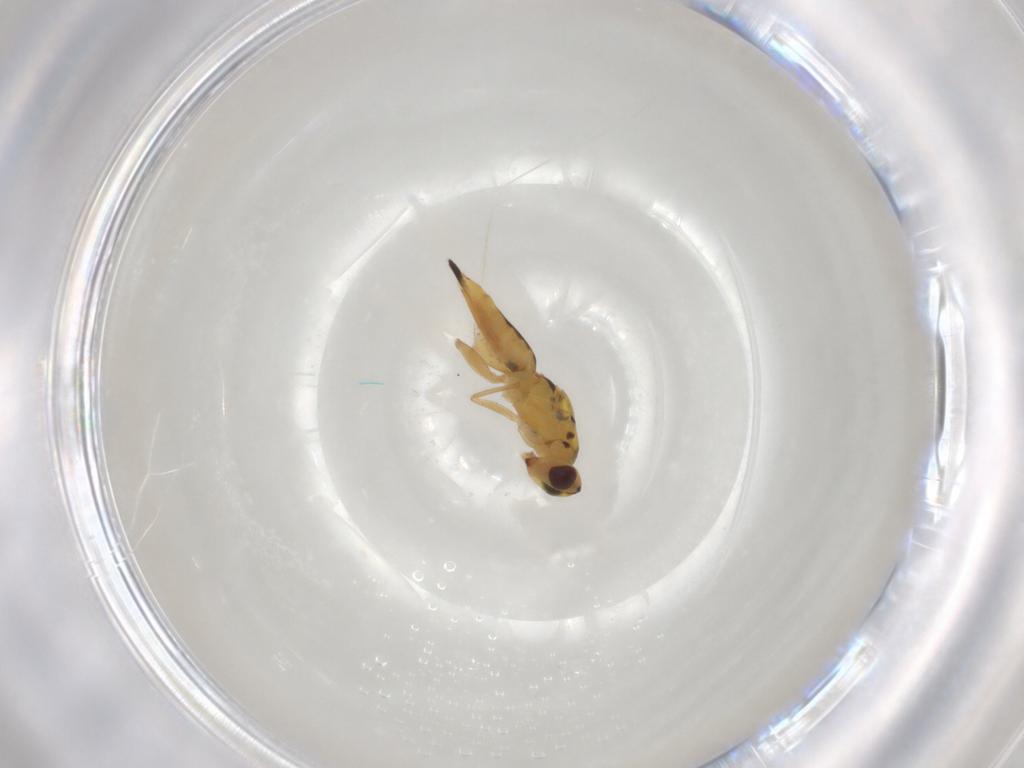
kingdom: Animalia
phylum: Arthropoda
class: Insecta
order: Hymenoptera
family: Eulophidae
